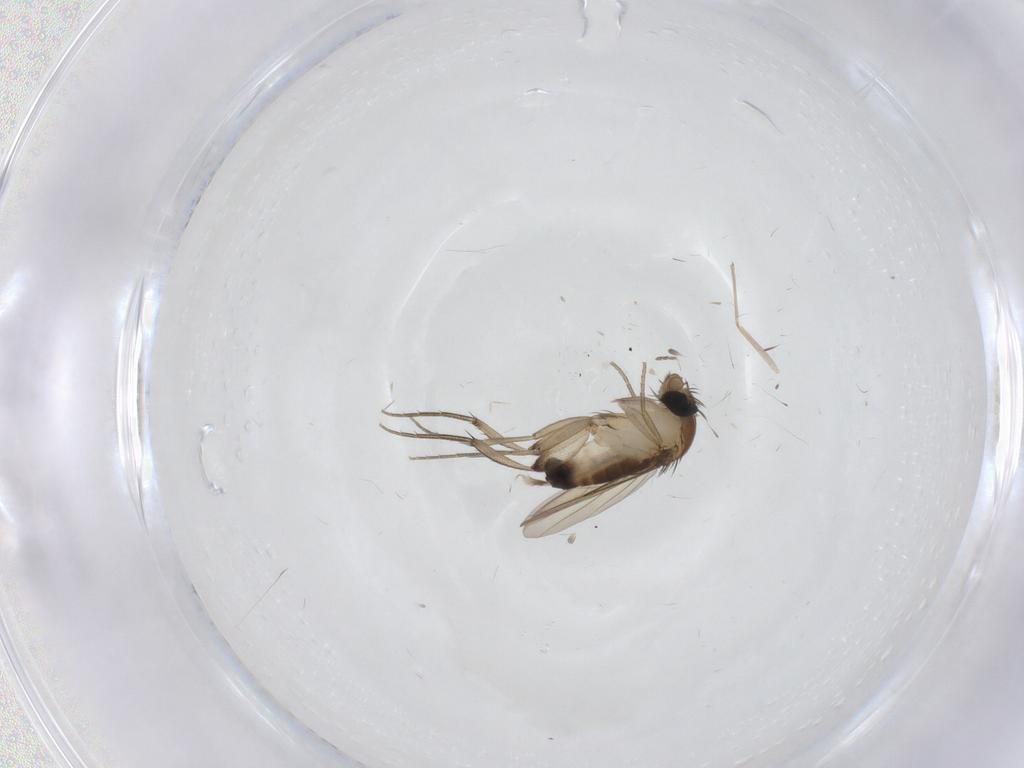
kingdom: Animalia
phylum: Arthropoda
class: Insecta
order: Diptera
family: Phoridae
